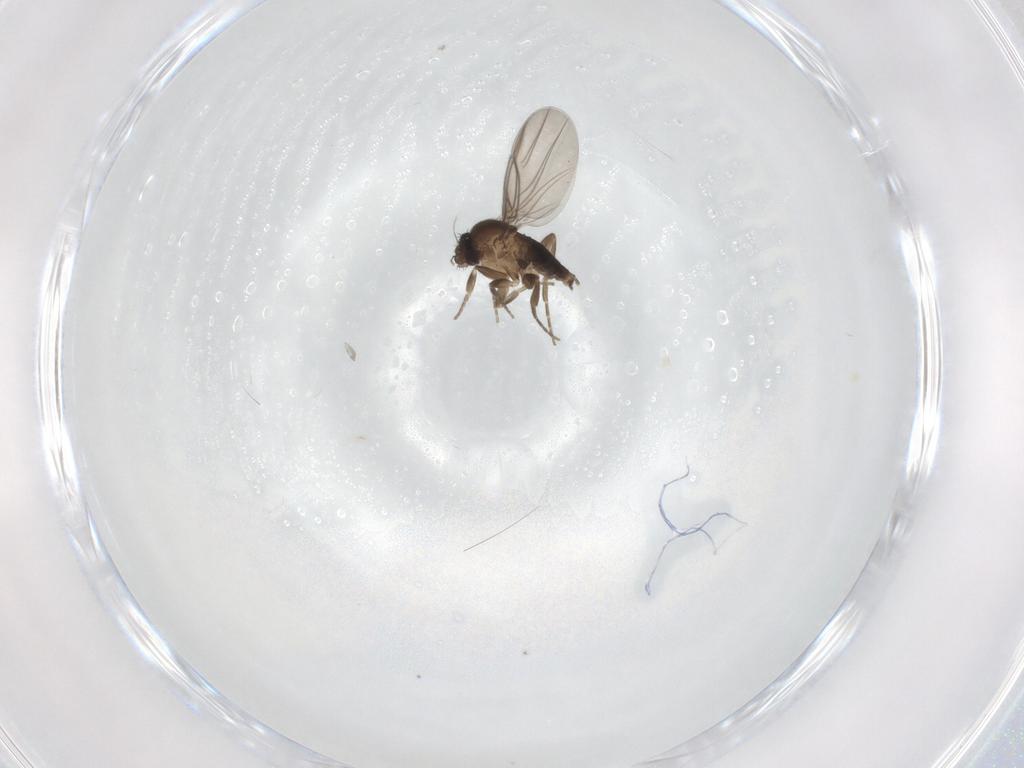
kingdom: Animalia
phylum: Arthropoda
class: Insecta
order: Diptera
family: Phoridae
